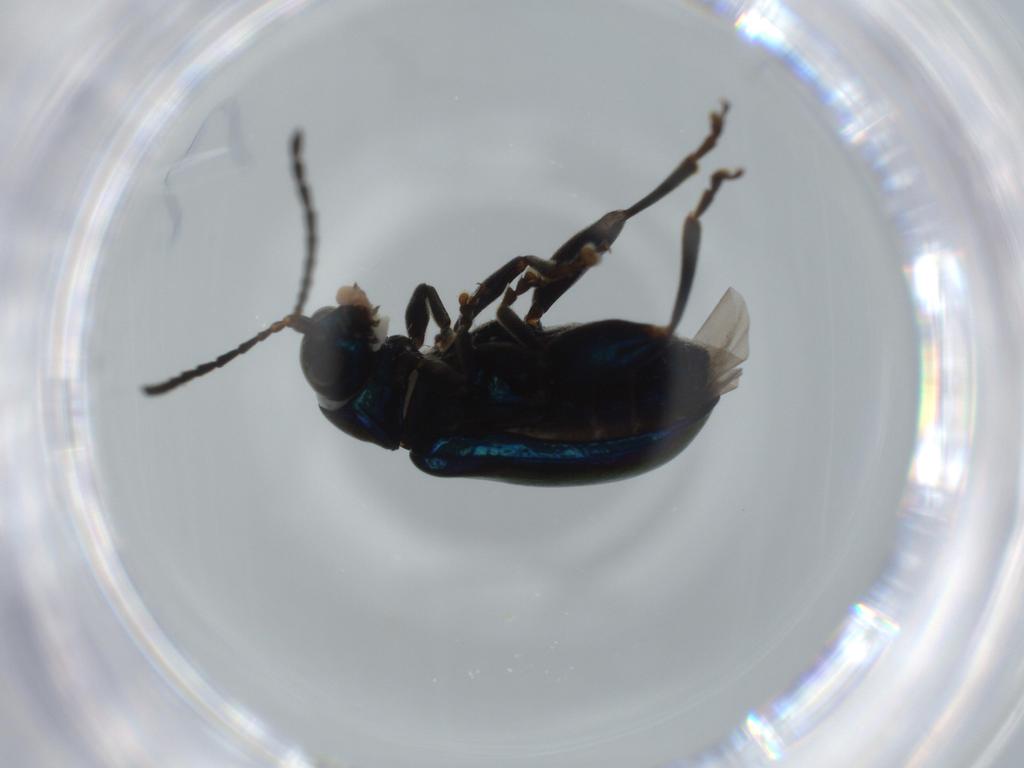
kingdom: Animalia
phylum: Arthropoda
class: Insecta
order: Coleoptera
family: Chrysomelidae
